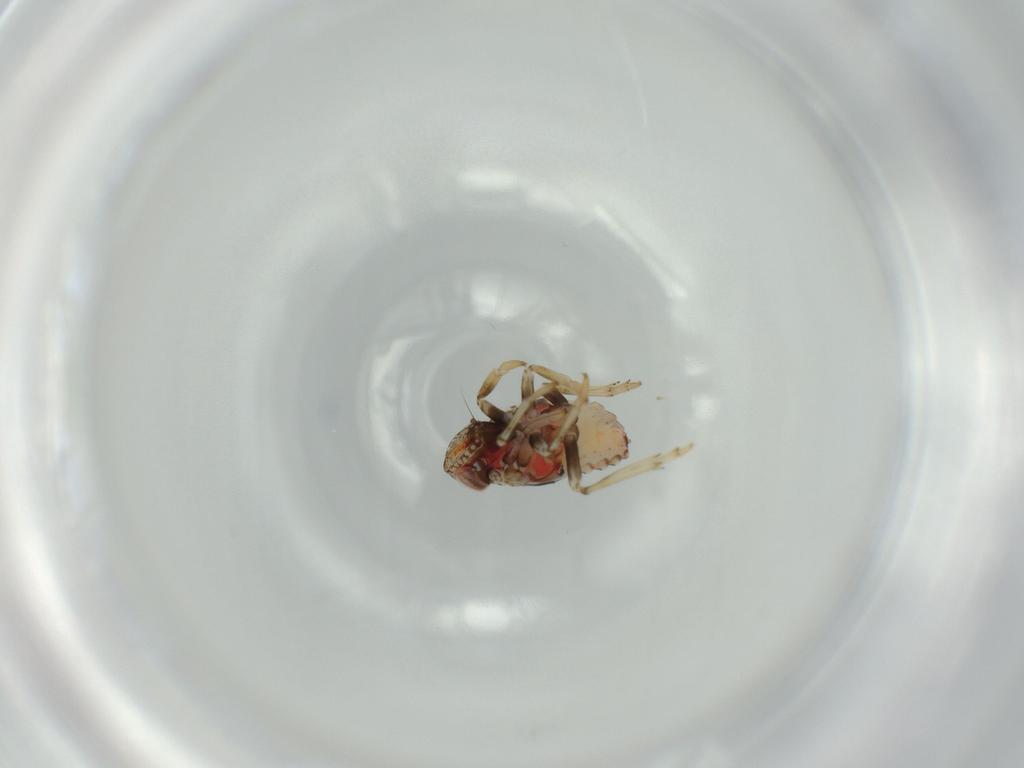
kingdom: Animalia
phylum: Arthropoda
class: Insecta
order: Hemiptera
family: Issidae
